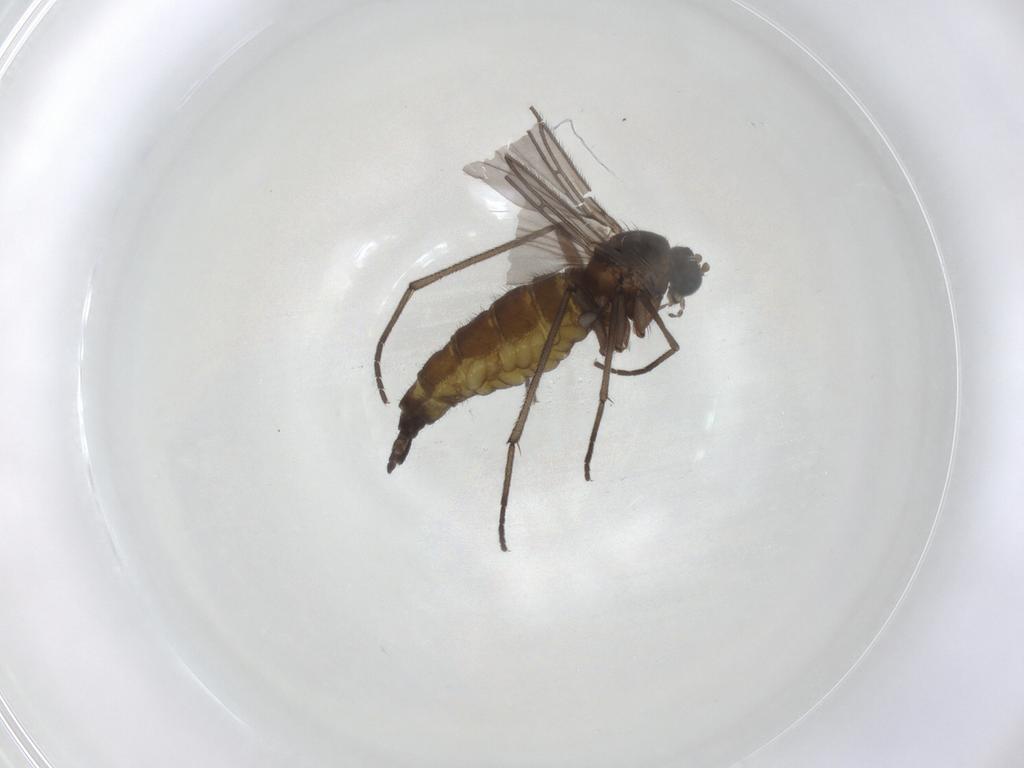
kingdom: Animalia
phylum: Arthropoda
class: Insecta
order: Diptera
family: Sciaridae
